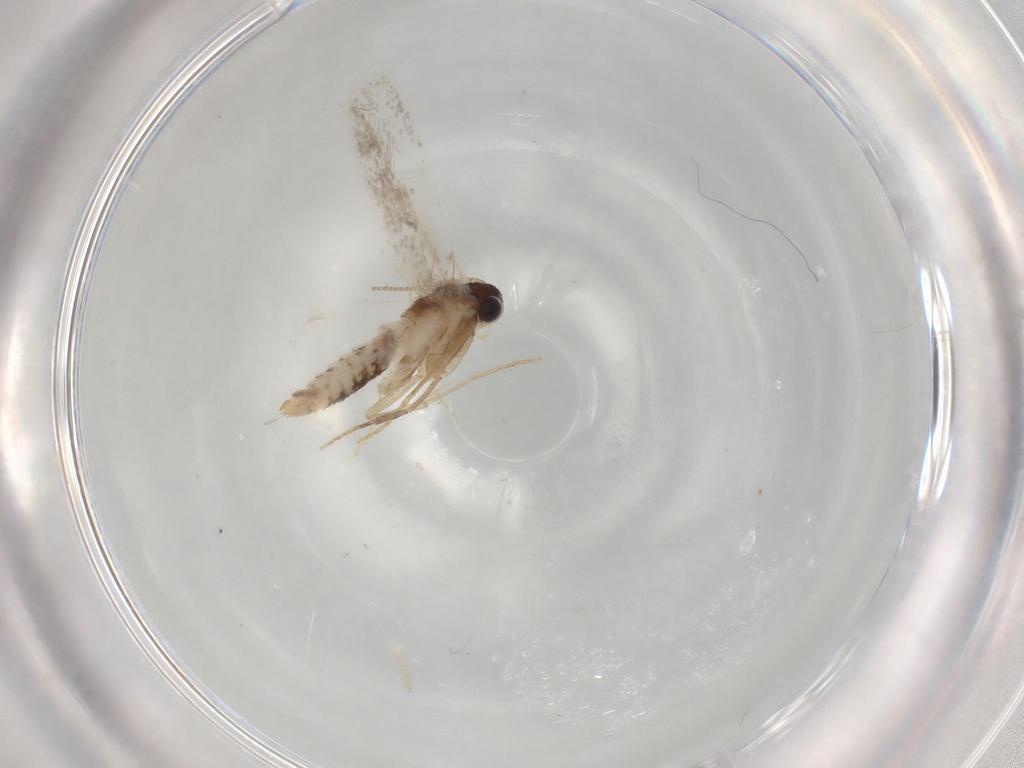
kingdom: Animalia
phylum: Arthropoda
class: Insecta
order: Lepidoptera
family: Tineidae
